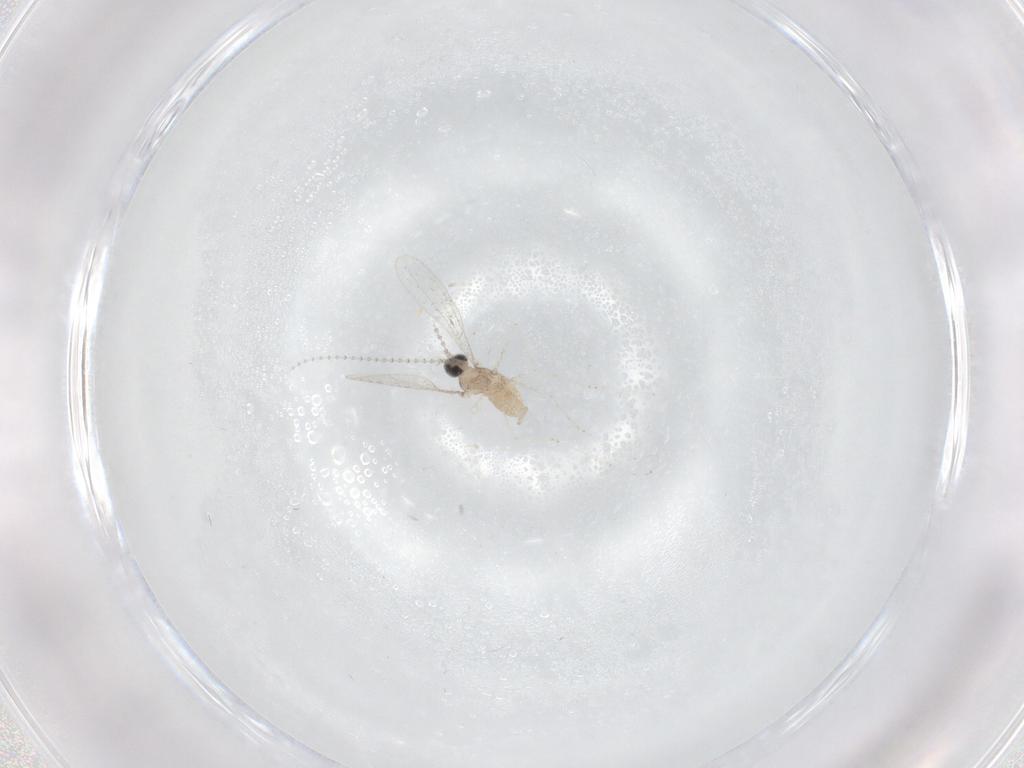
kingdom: Animalia
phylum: Arthropoda
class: Insecta
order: Diptera
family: Cecidomyiidae
